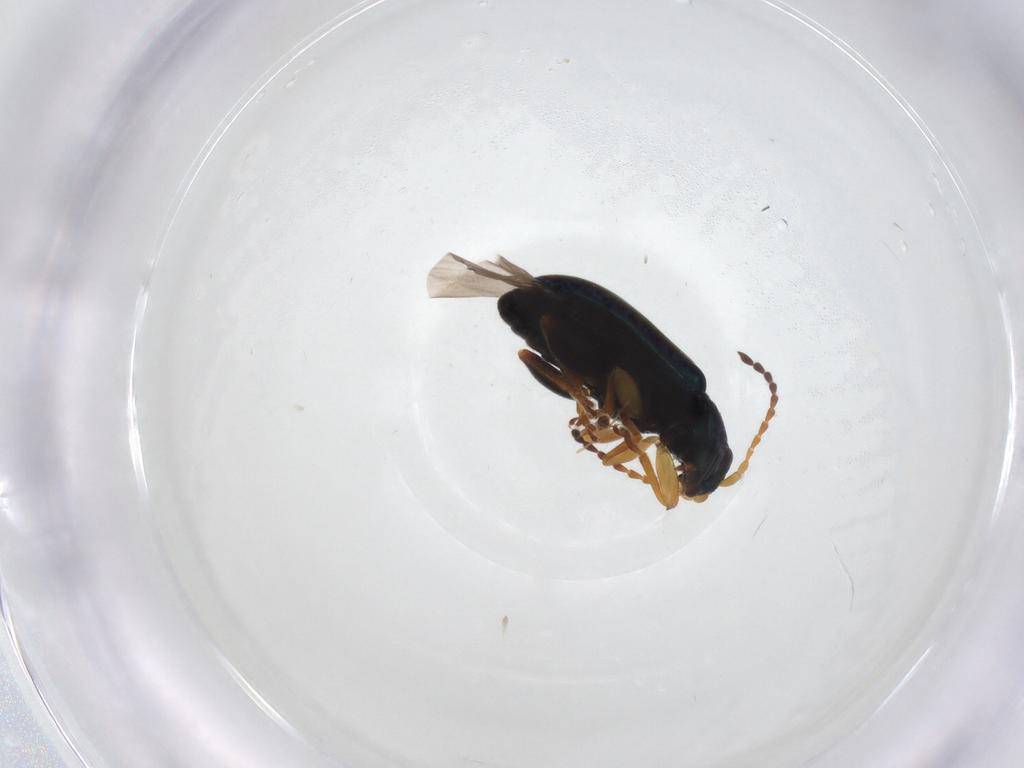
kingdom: Animalia
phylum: Arthropoda
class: Insecta
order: Coleoptera
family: Chrysomelidae
